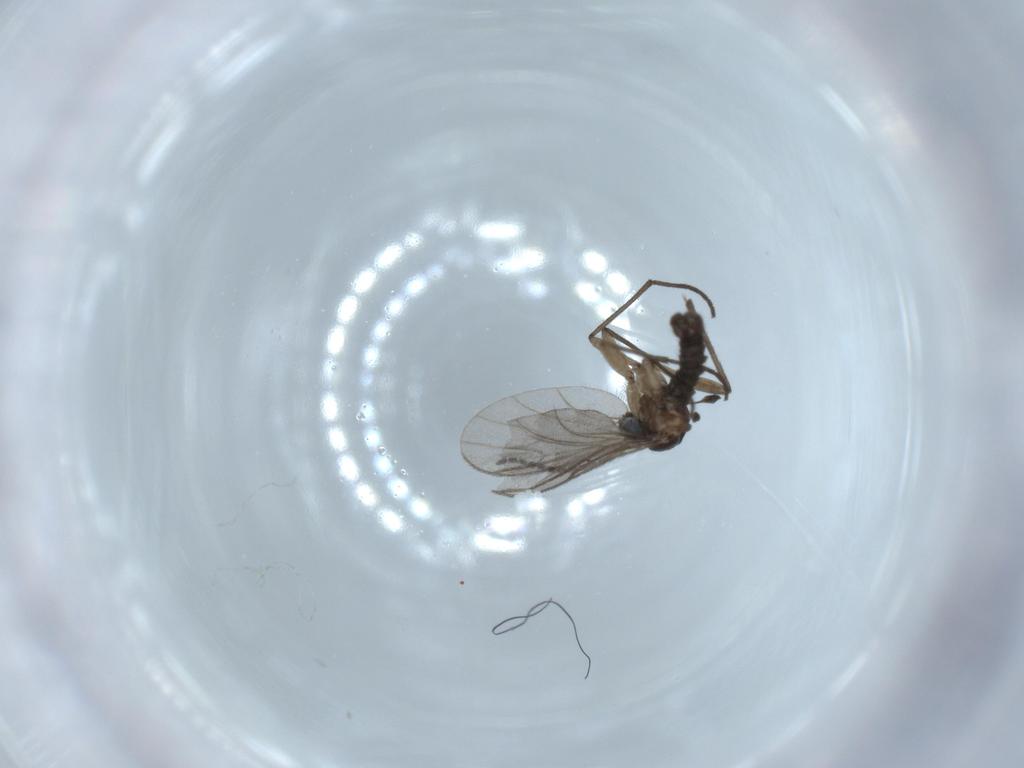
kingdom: Animalia
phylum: Arthropoda
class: Insecta
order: Diptera
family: Sciaridae
